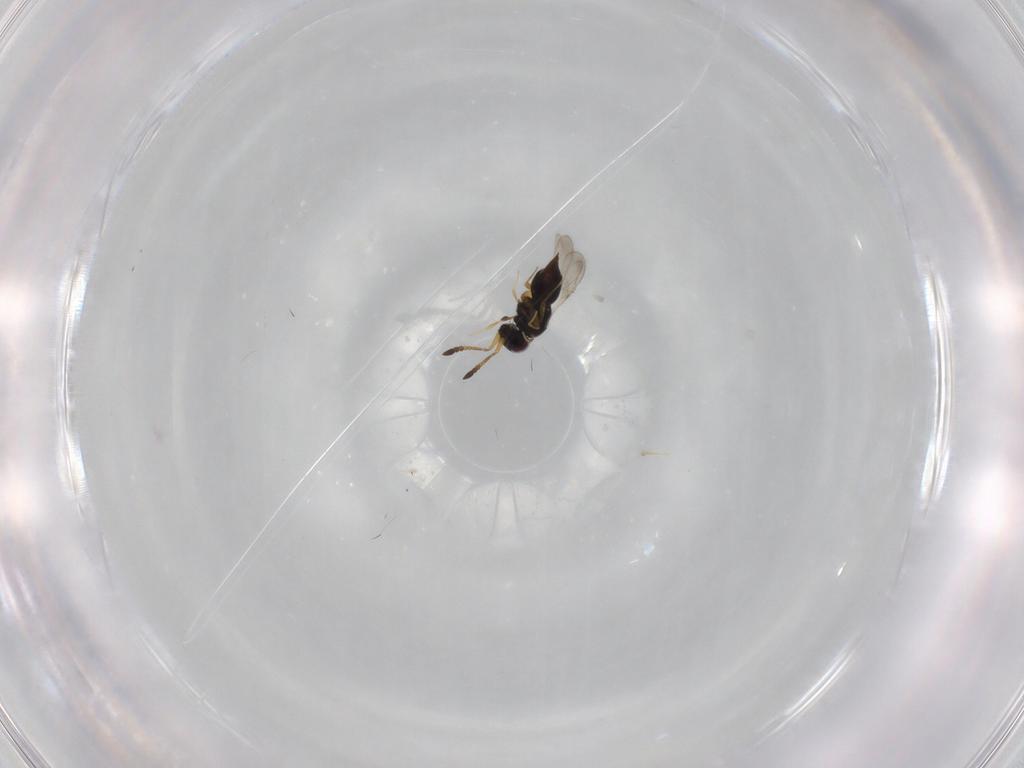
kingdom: Animalia
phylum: Arthropoda
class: Insecta
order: Hymenoptera
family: Ceraphronidae
